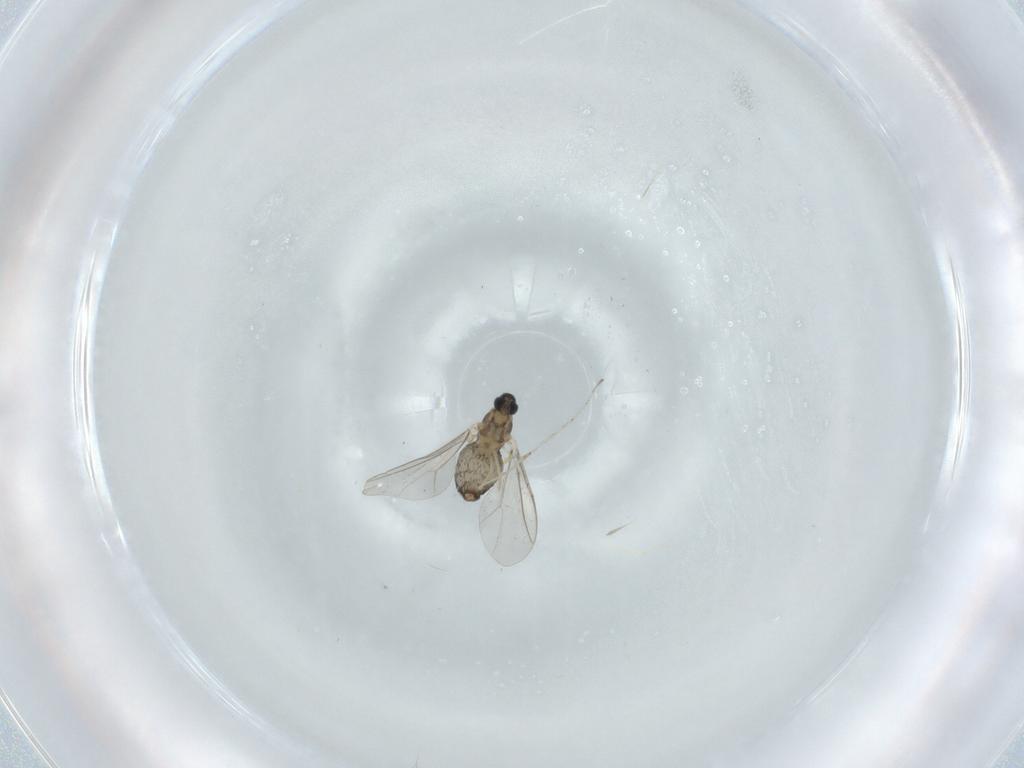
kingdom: Animalia
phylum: Arthropoda
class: Insecta
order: Diptera
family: Cecidomyiidae
